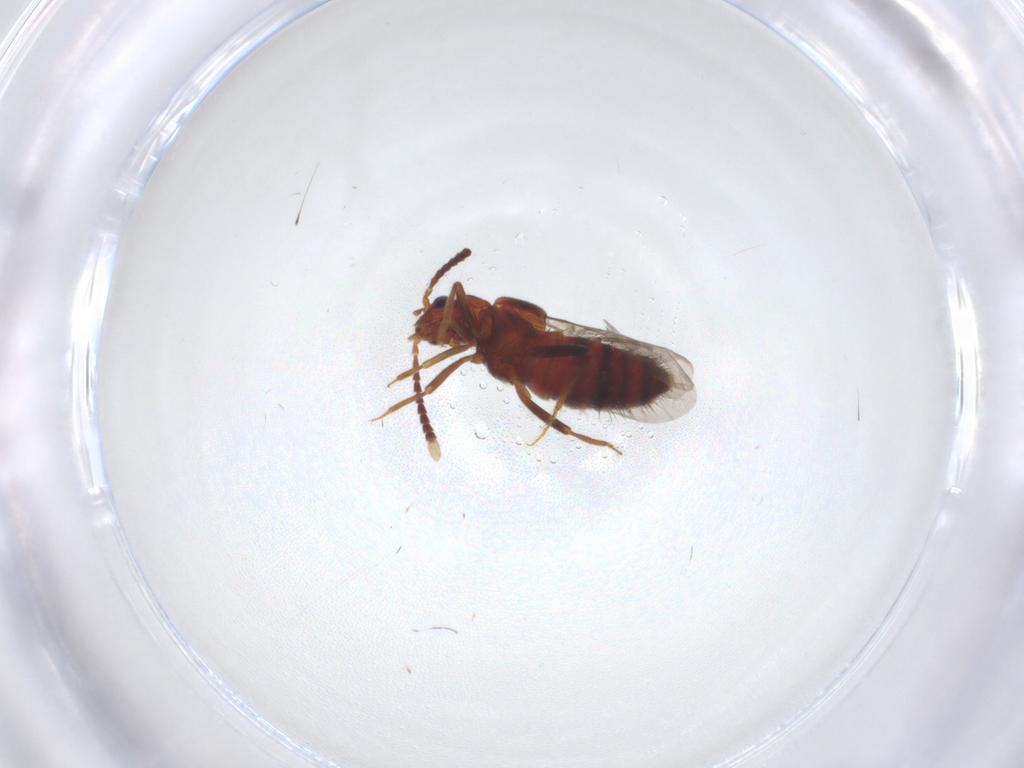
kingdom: Animalia
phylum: Arthropoda
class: Insecta
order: Coleoptera
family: Staphylinidae
